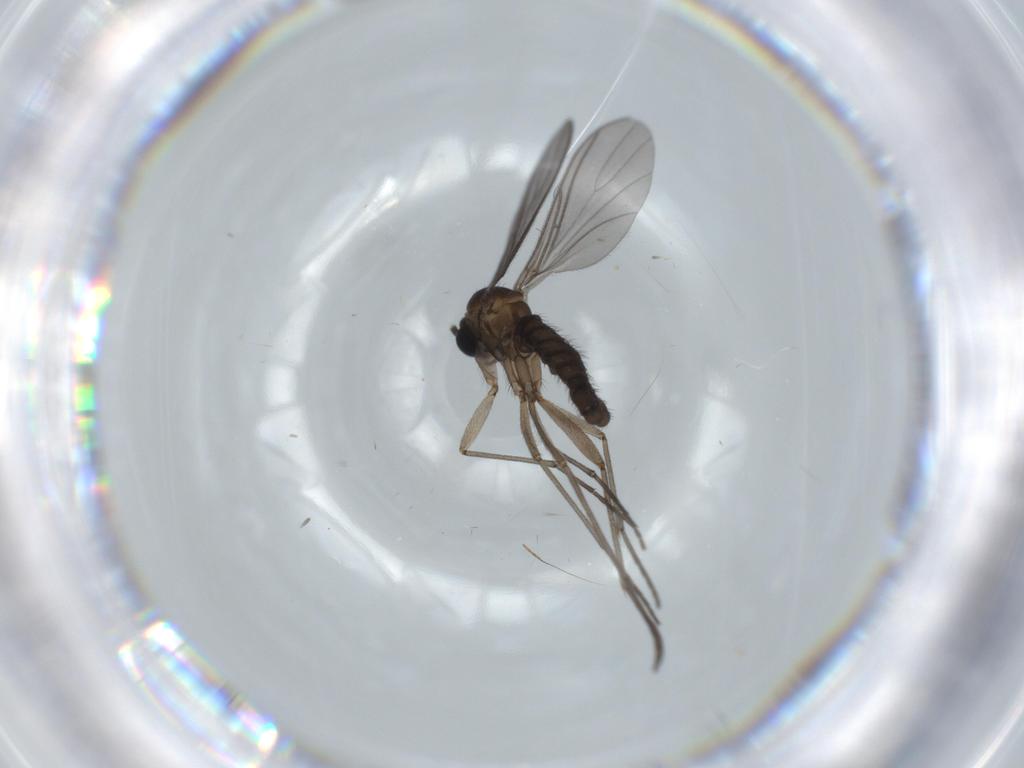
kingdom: Animalia
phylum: Arthropoda
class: Insecta
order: Diptera
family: Sciaridae
